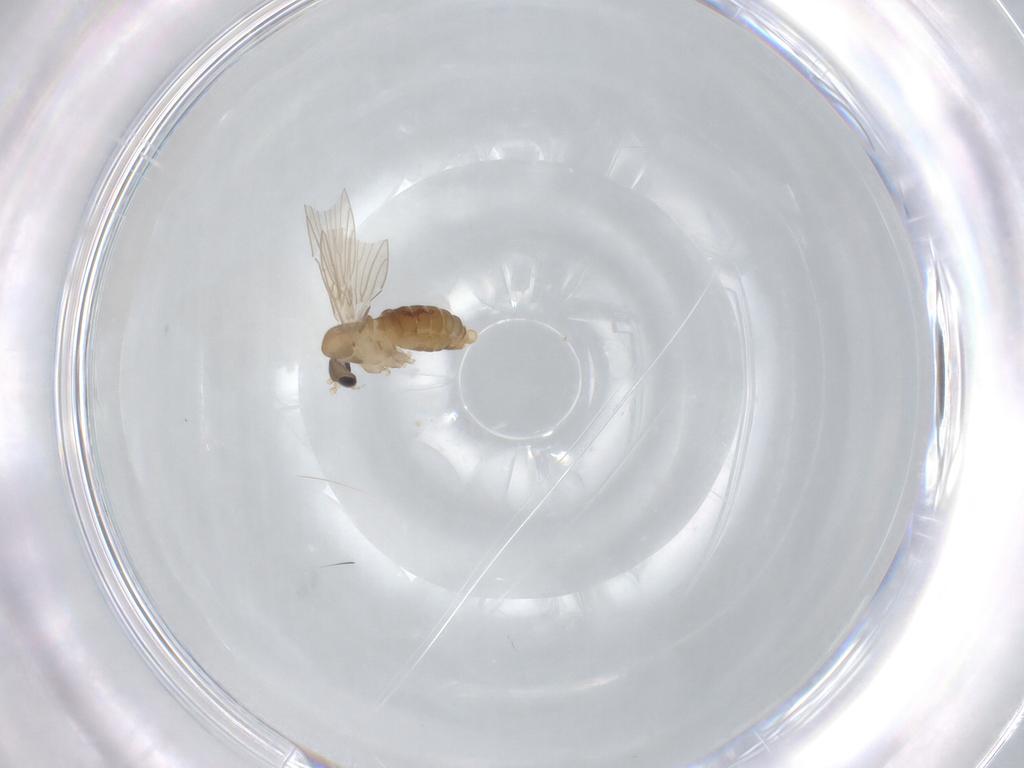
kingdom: Animalia
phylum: Arthropoda
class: Insecta
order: Diptera
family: Psychodidae
